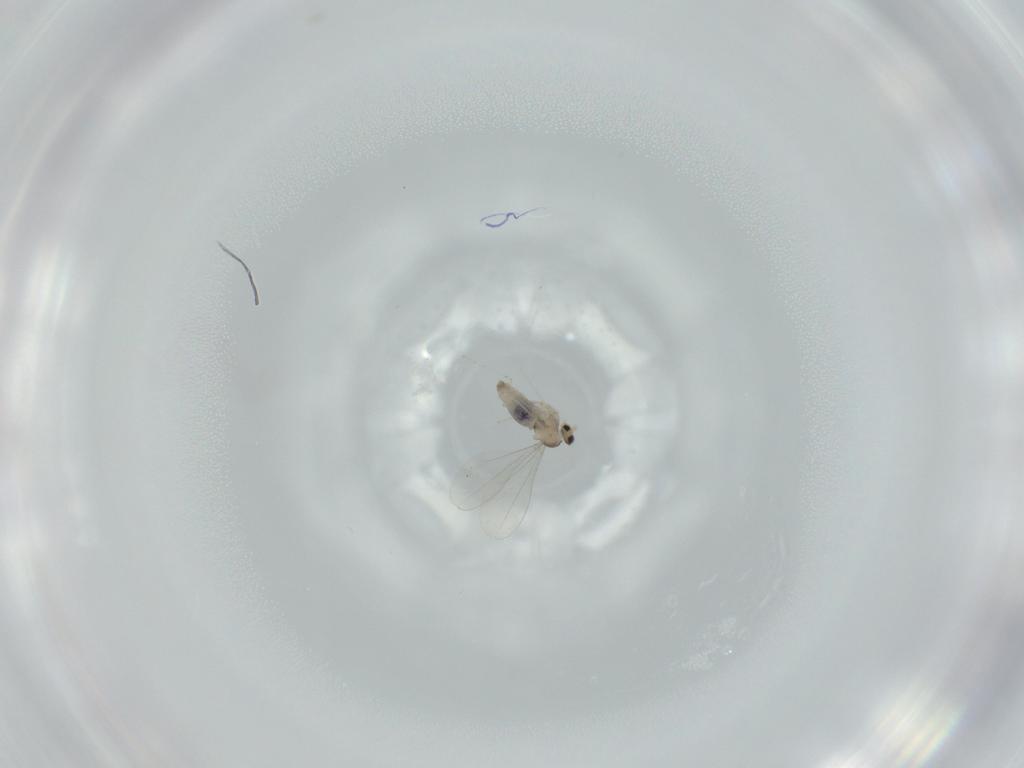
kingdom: Animalia
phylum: Arthropoda
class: Insecta
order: Diptera
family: Cecidomyiidae
